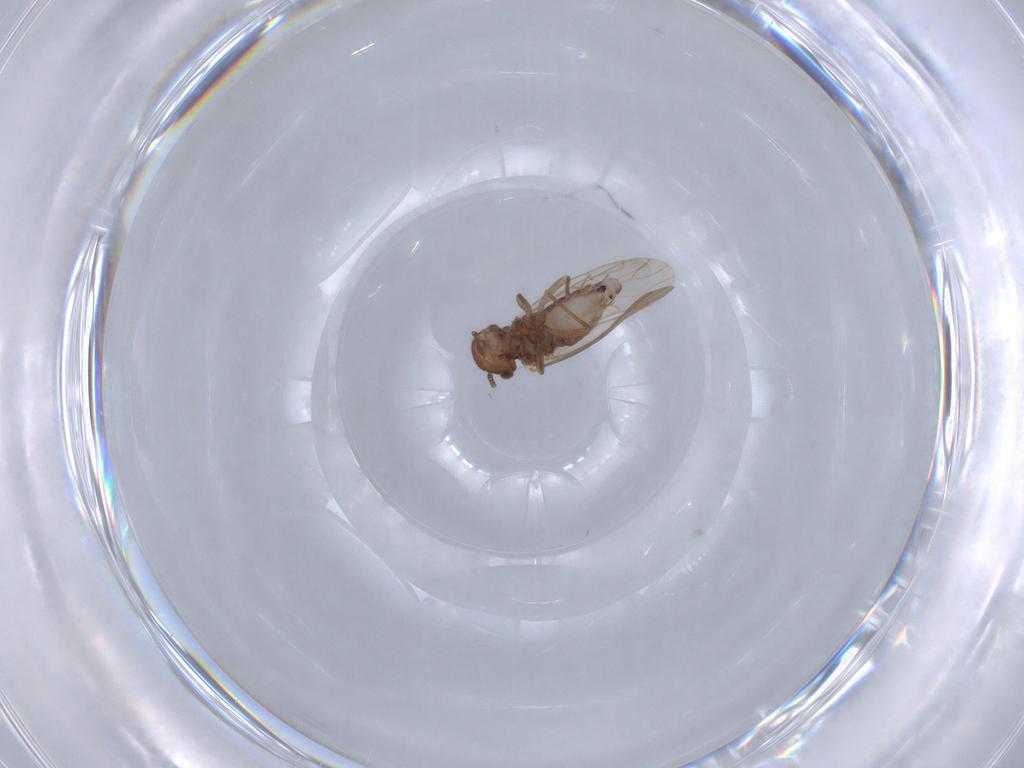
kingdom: Animalia
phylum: Arthropoda
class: Insecta
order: Psocodea
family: Ectopsocidae
